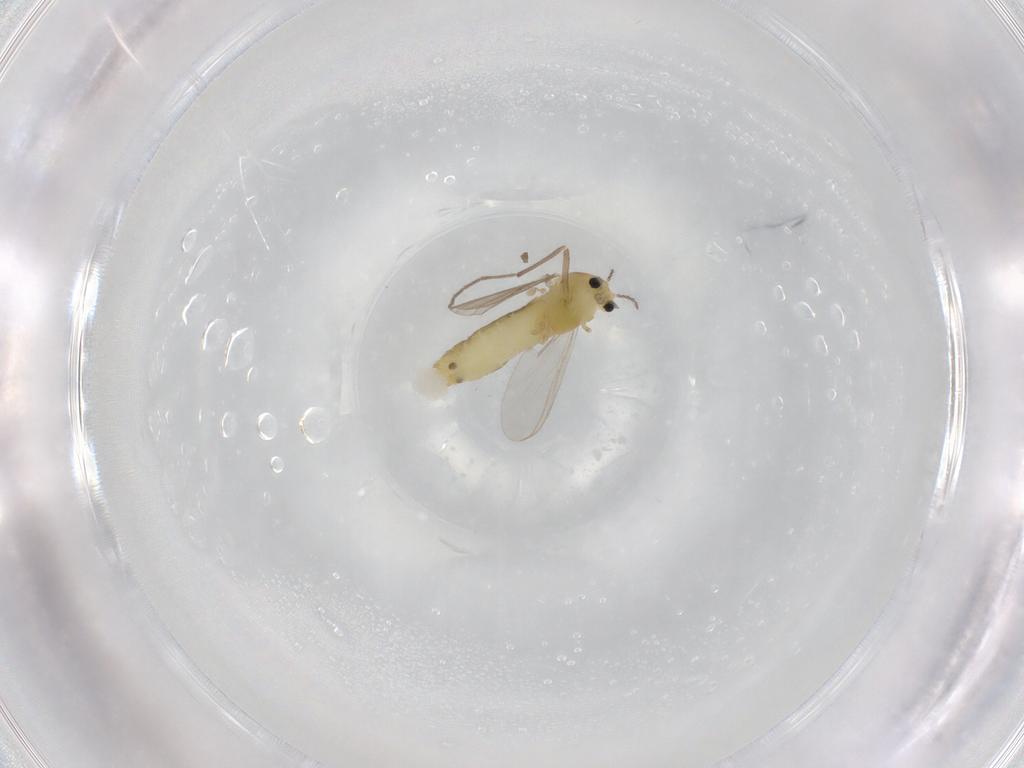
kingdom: Animalia
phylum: Arthropoda
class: Insecta
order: Diptera
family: Chironomidae
